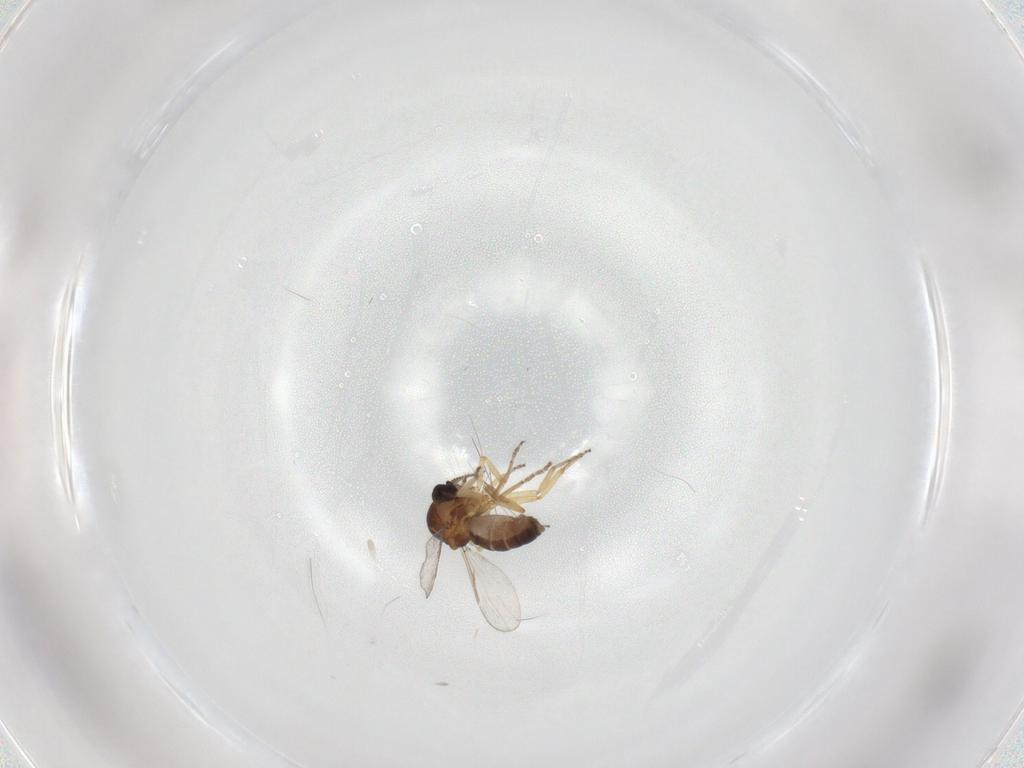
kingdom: Animalia
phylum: Arthropoda
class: Insecta
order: Diptera
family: Ceratopogonidae
